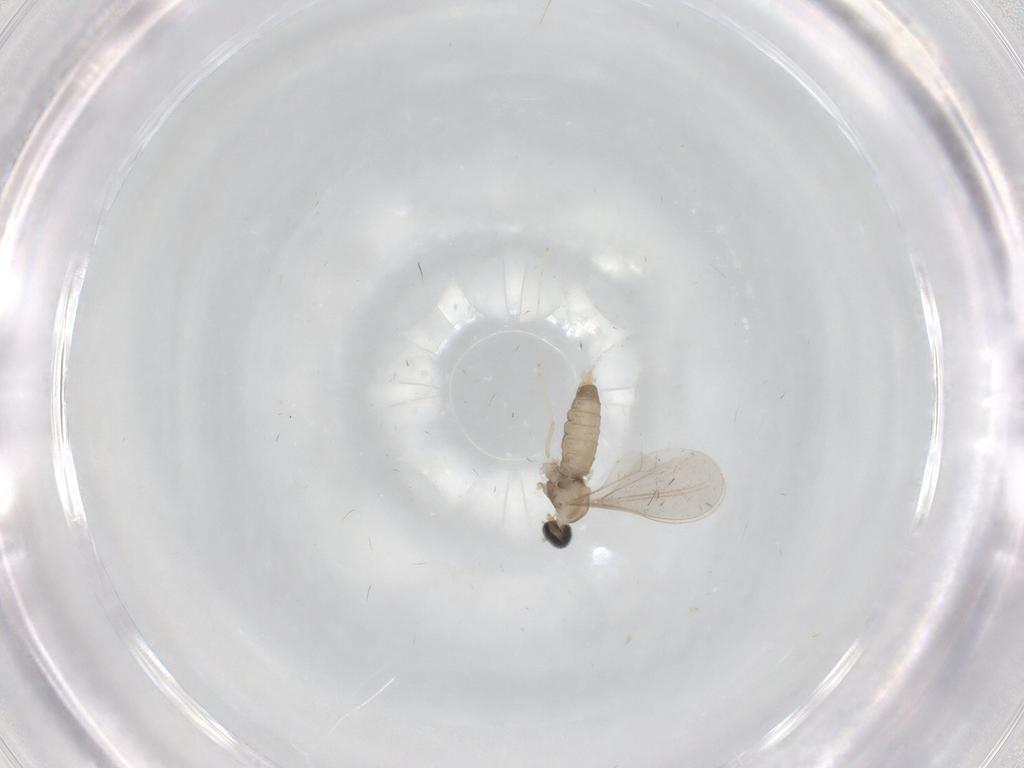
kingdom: Animalia
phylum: Arthropoda
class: Insecta
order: Diptera
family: Cecidomyiidae
